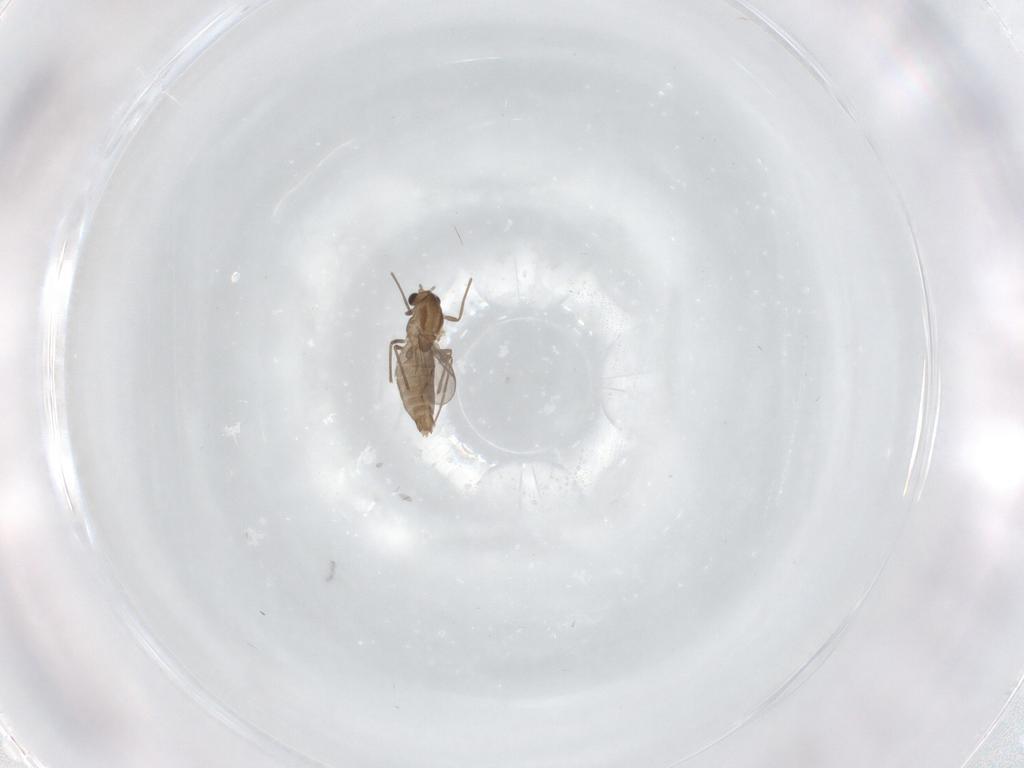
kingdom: Animalia
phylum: Arthropoda
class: Insecta
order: Diptera
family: Chironomidae
